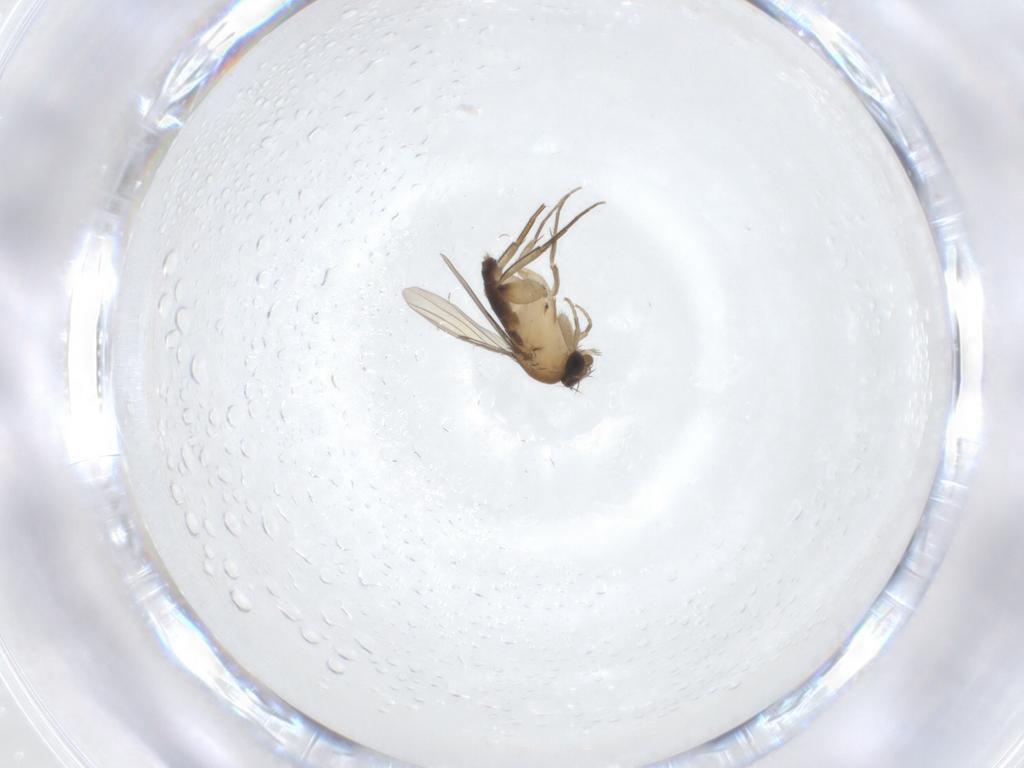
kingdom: Animalia
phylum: Arthropoda
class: Insecta
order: Diptera
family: Phoridae
